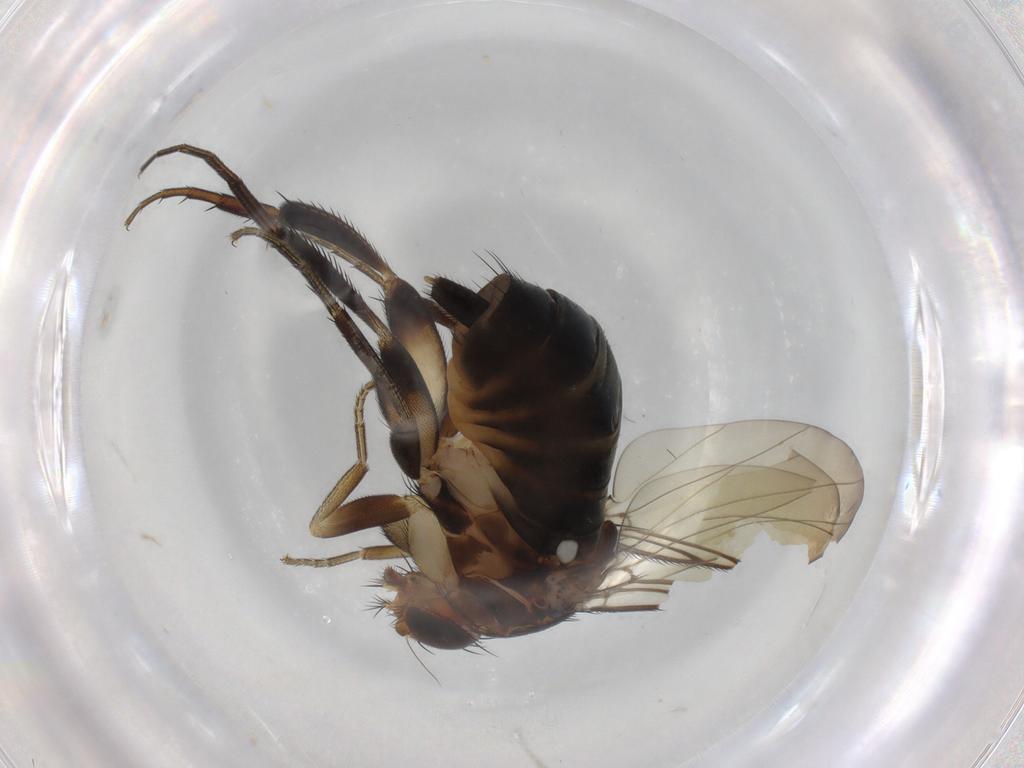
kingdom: Animalia
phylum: Arthropoda
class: Insecta
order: Diptera
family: Phoridae
